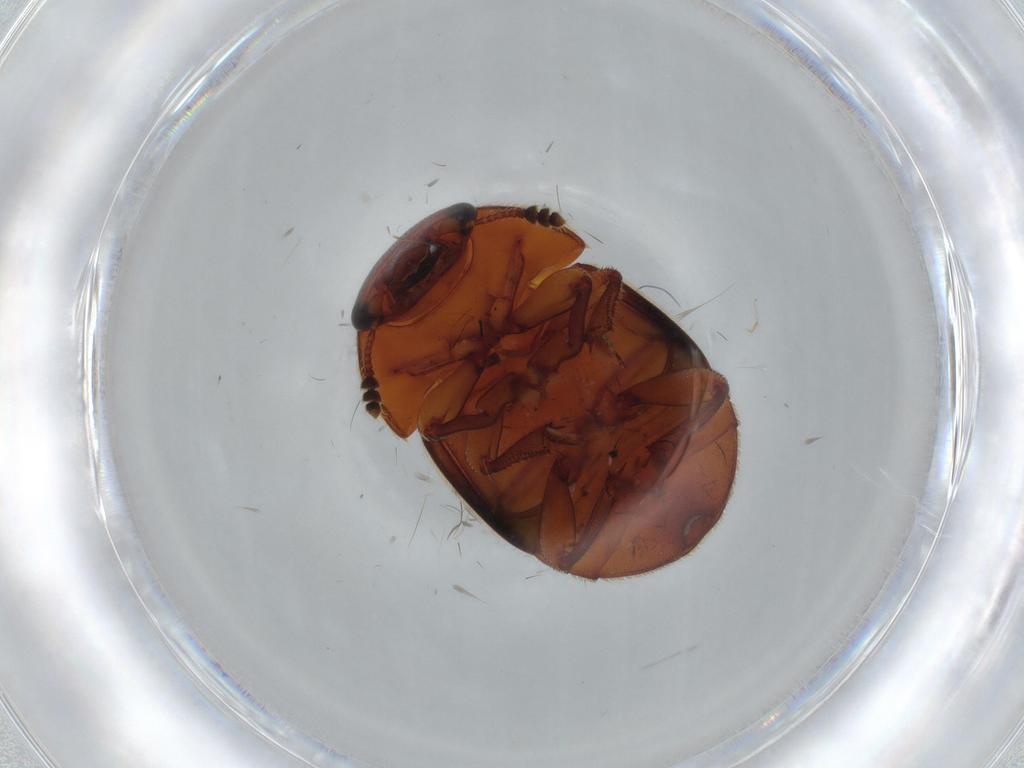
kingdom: Animalia
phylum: Arthropoda
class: Insecta
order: Coleoptera
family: Nitidulidae
